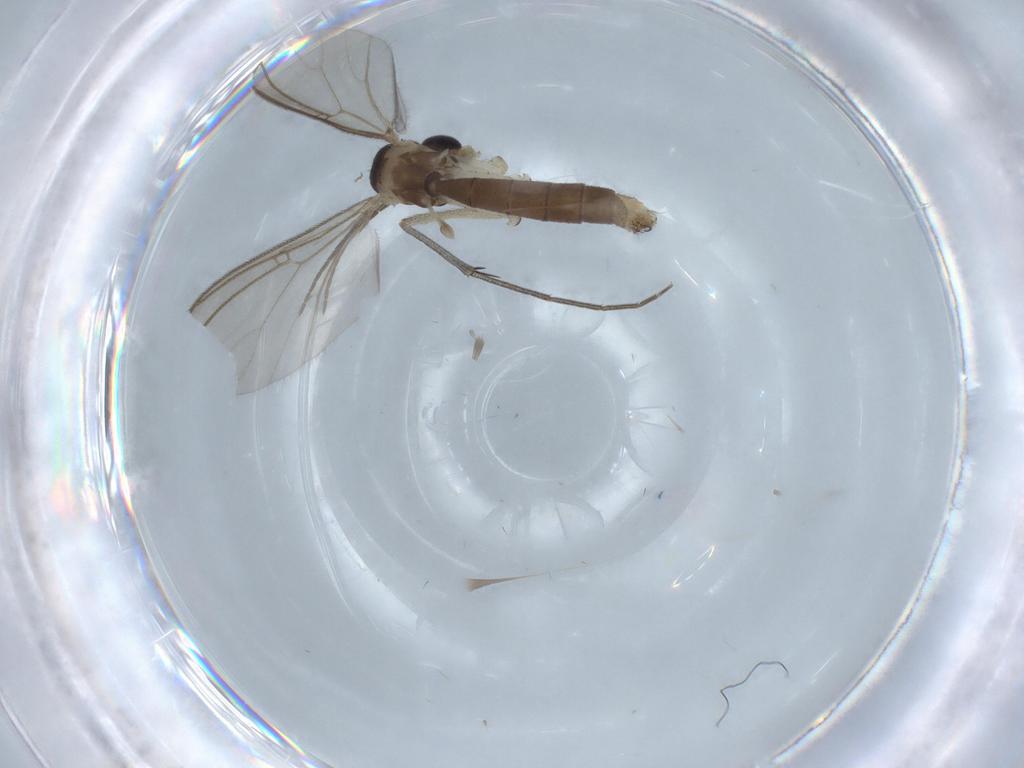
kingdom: Animalia
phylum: Arthropoda
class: Insecta
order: Diptera
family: Mycetophilidae
